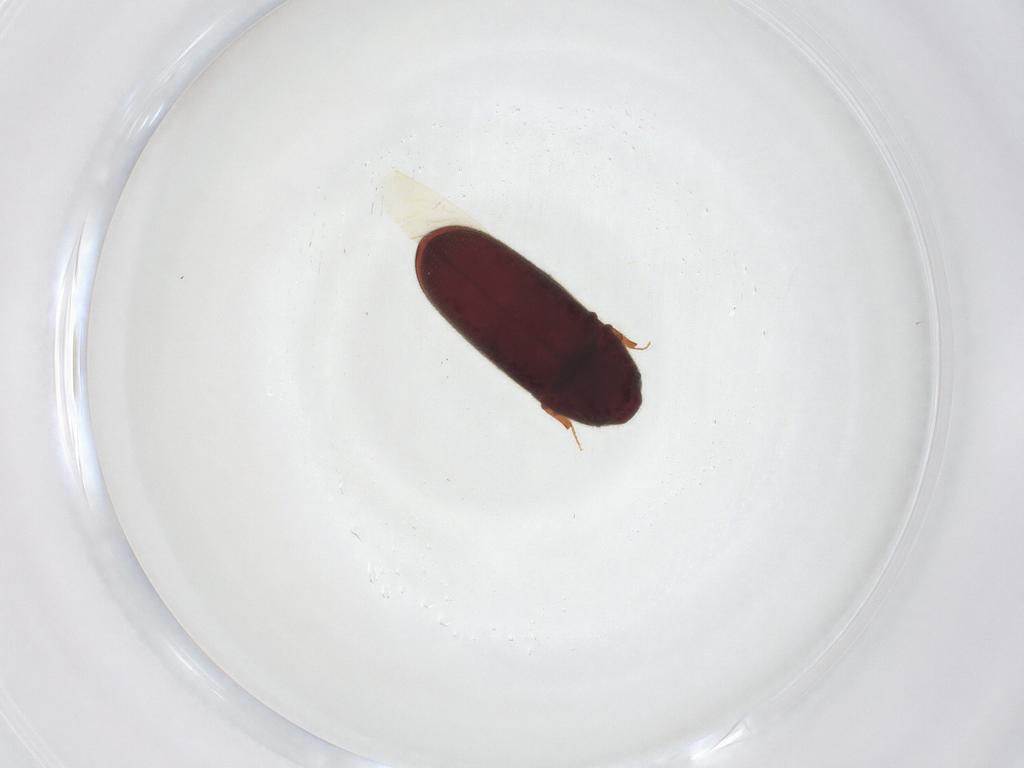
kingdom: Animalia
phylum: Arthropoda
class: Insecta
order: Coleoptera
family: Throscidae
